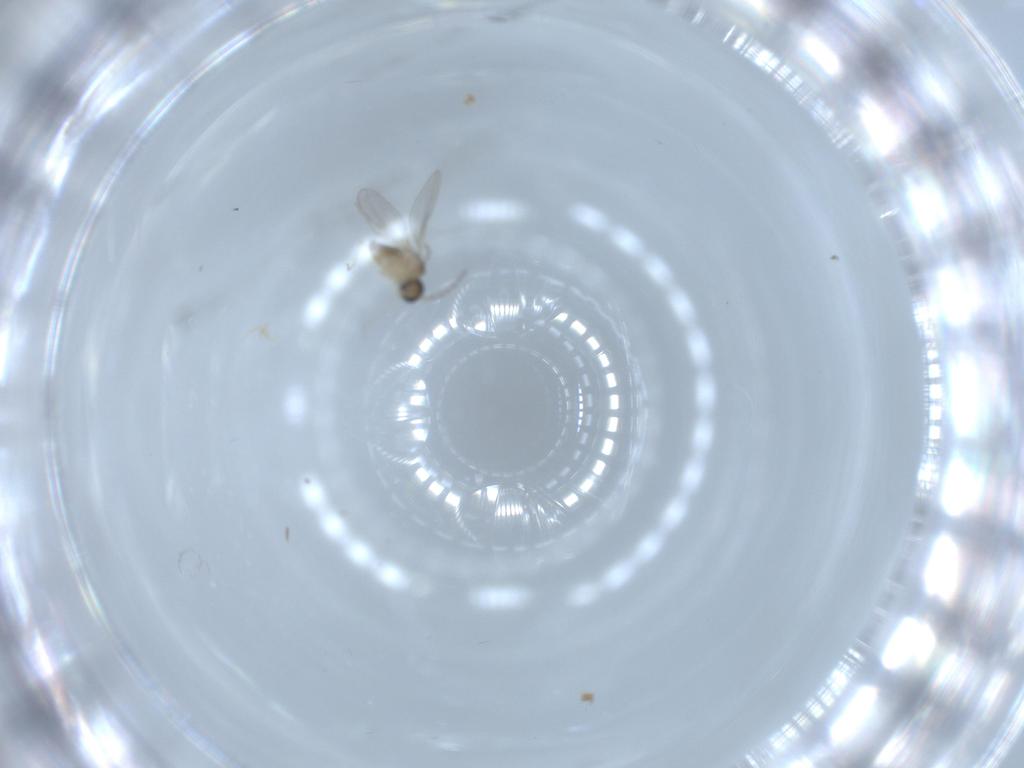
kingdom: Animalia
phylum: Arthropoda
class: Insecta
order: Diptera
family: Cecidomyiidae
